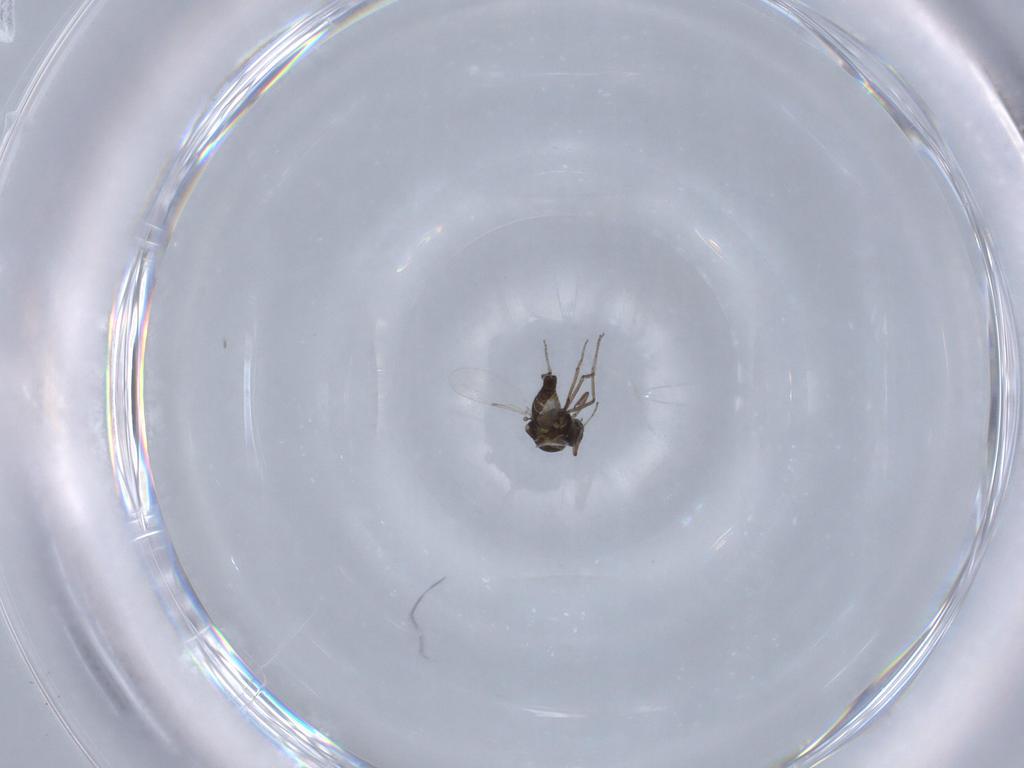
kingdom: Animalia
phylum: Arthropoda
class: Insecta
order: Diptera
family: Ceratopogonidae
